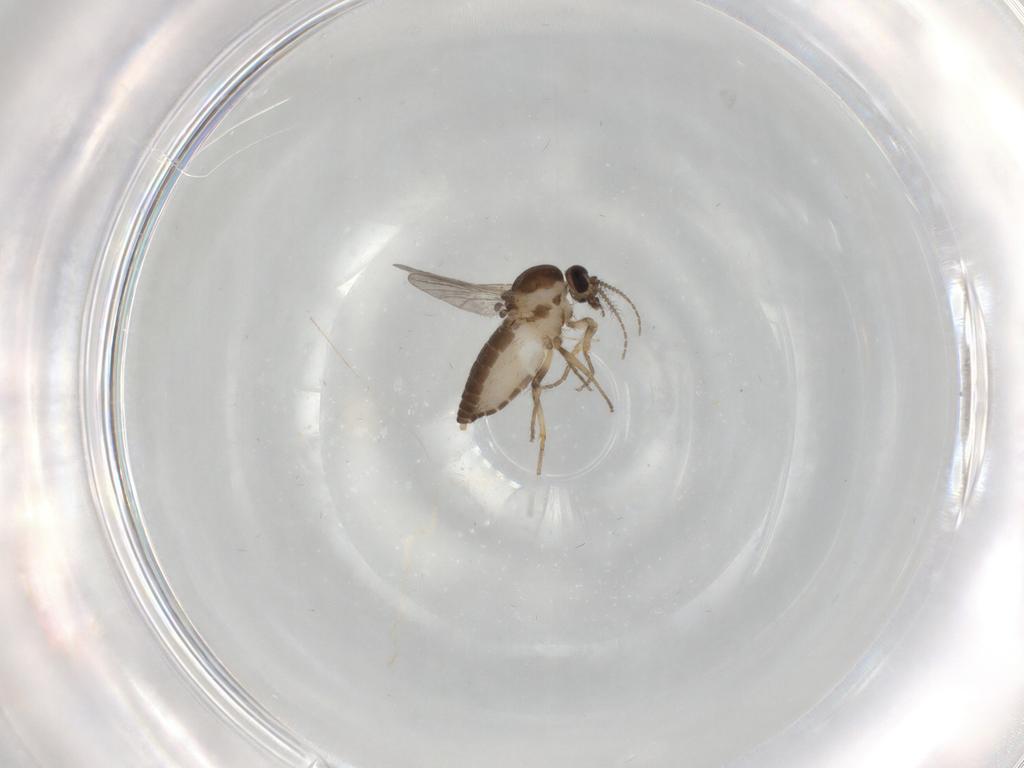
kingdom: Animalia
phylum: Arthropoda
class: Insecta
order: Diptera
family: Ceratopogonidae
